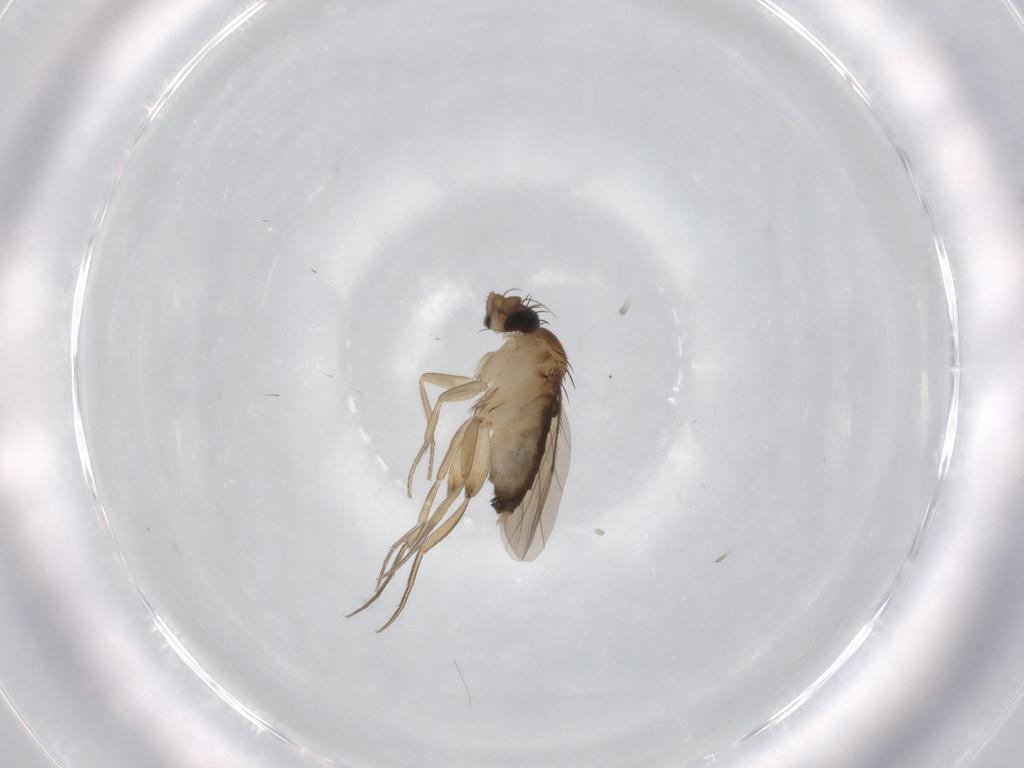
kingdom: Animalia
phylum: Arthropoda
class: Insecta
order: Diptera
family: Phoridae
